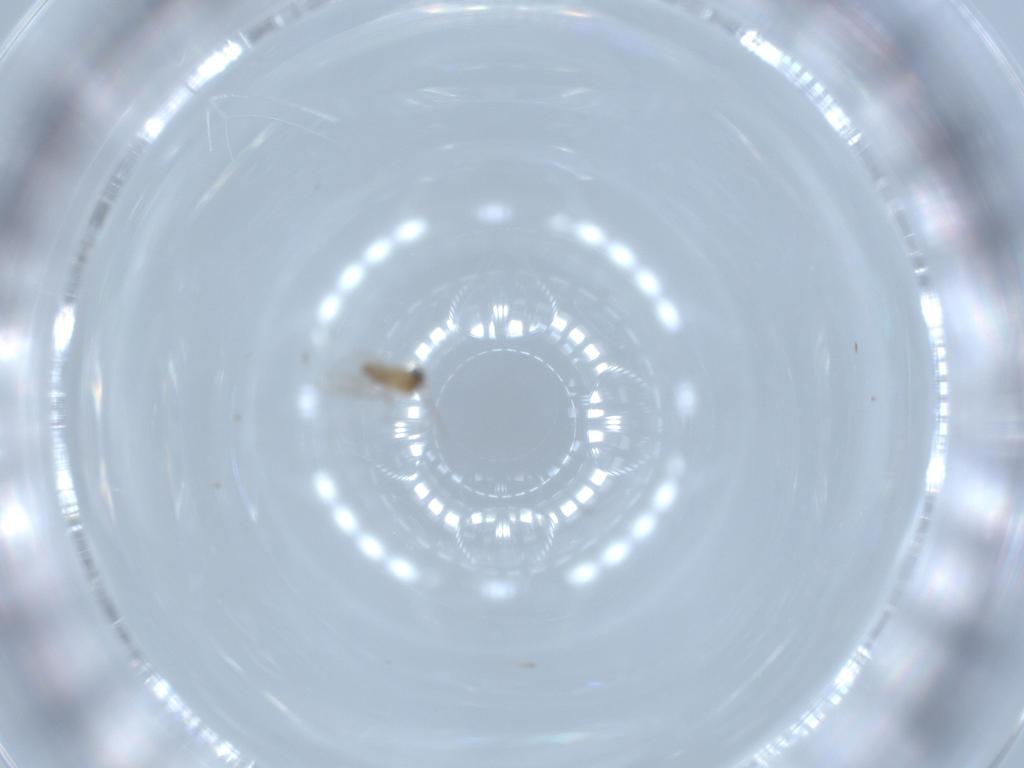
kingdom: Animalia
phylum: Arthropoda
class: Insecta
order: Diptera
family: Cecidomyiidae
